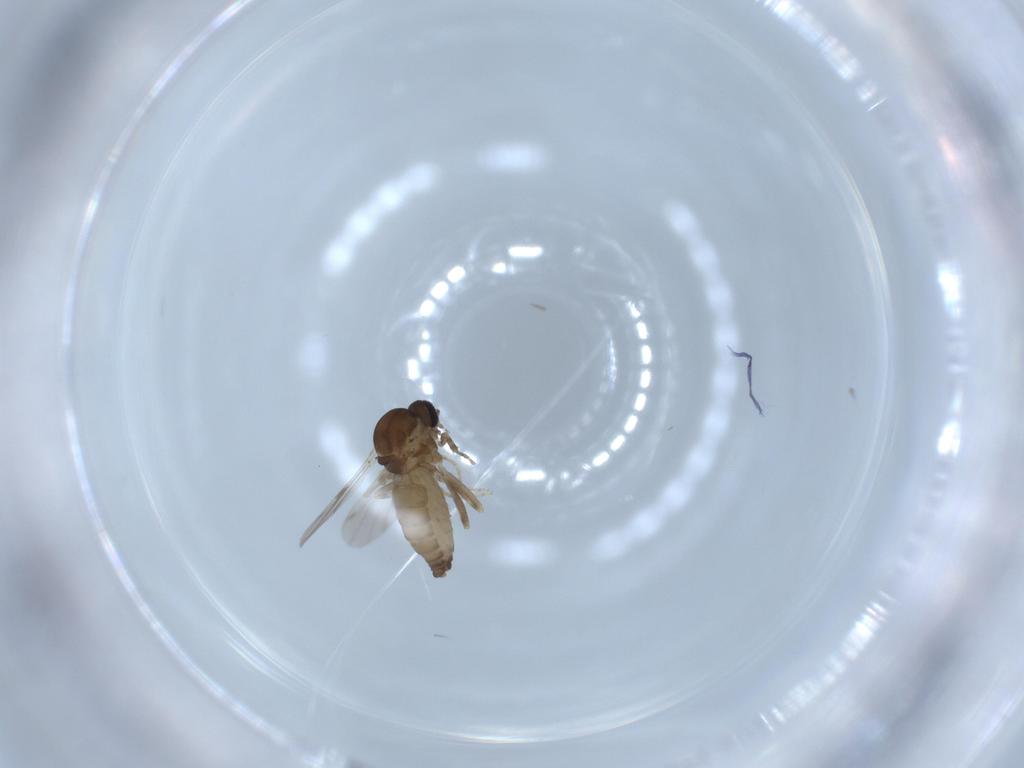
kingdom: Animalia
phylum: Arthropoda
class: Insecta
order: Diptera
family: Ceratopogonidae
